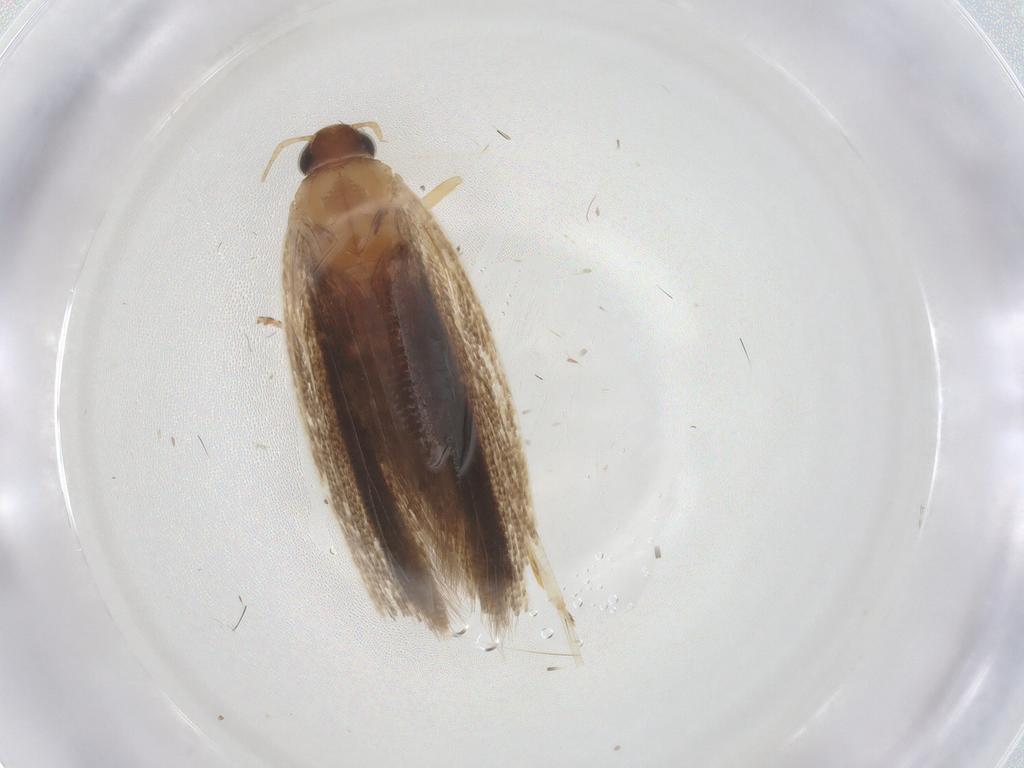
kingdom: Animalia
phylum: Arthropoda
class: Insecta
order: Lepidoptera
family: Gelechiidae
